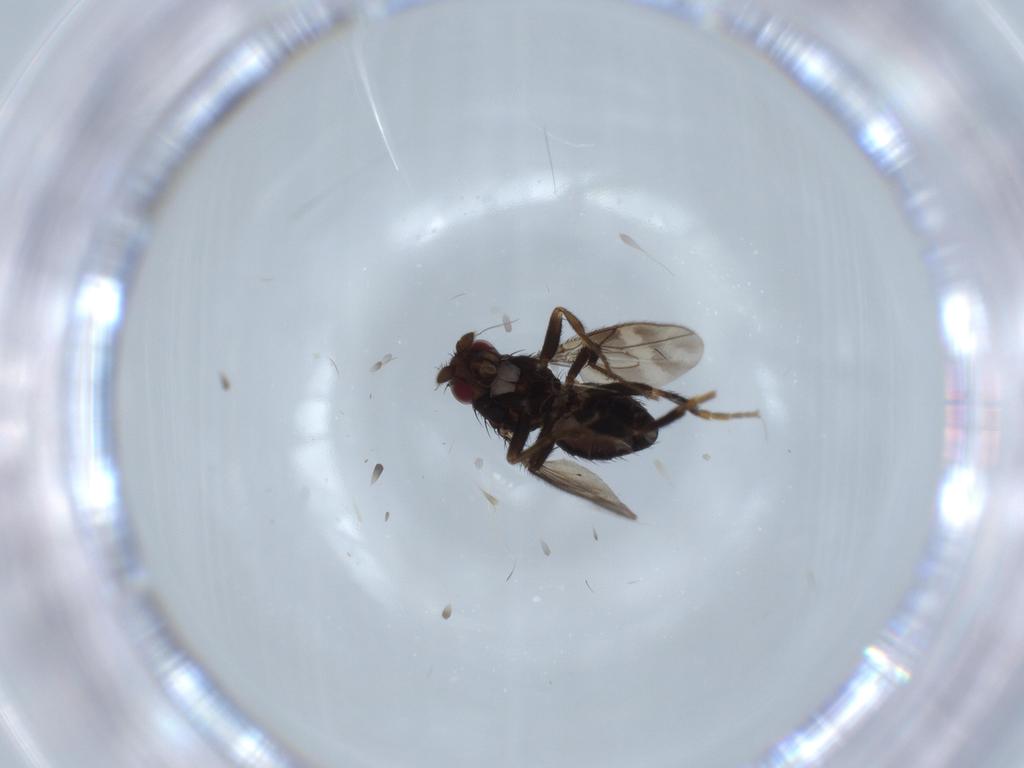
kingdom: Animalia
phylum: Arthropoda
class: Insecta
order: Diptera
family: Sphaeroceridae
